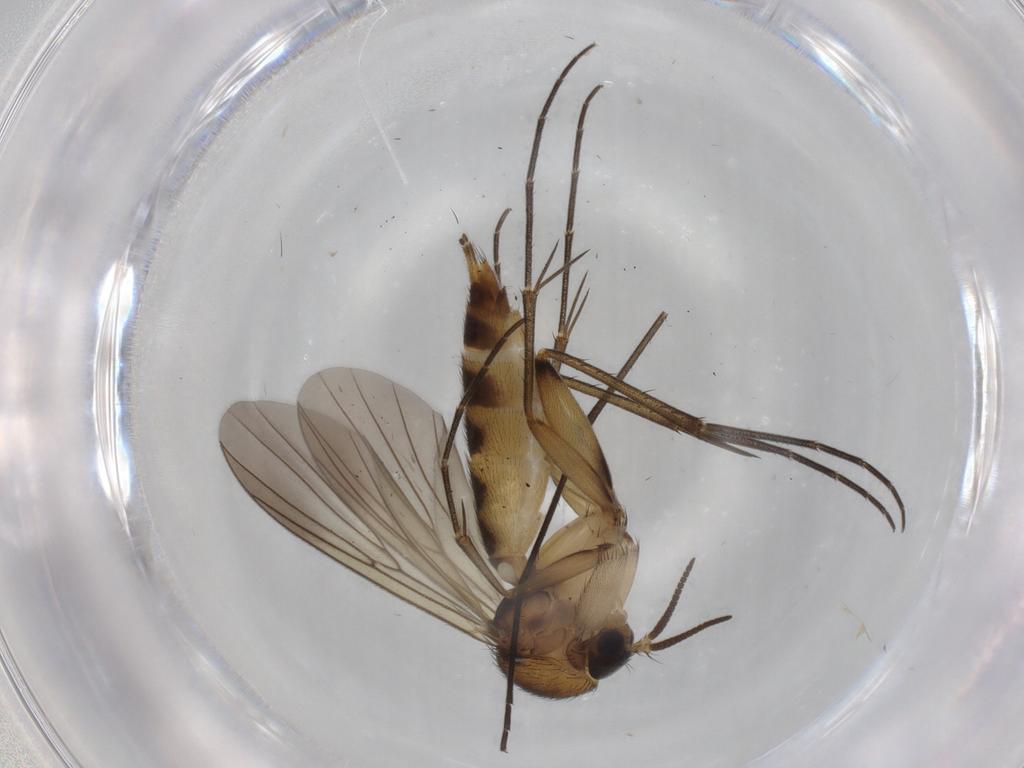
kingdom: Animalia
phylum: Arthropoda
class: Insecta
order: Diptera
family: Mycetophilidae
